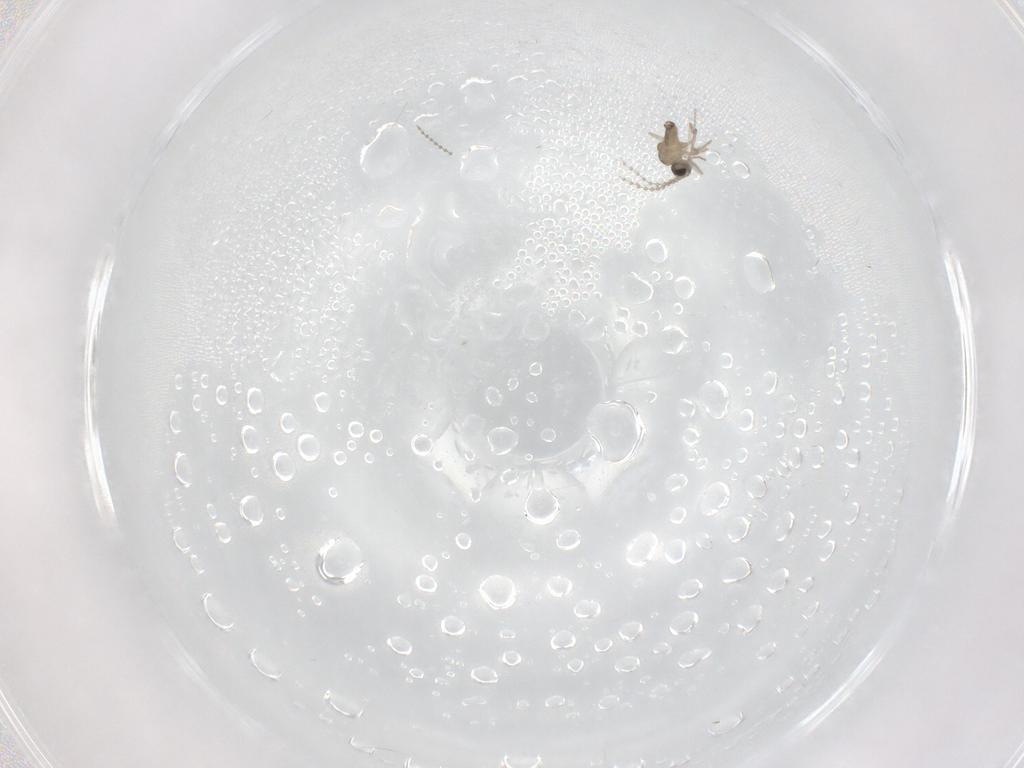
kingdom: Animalia
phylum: Arthropoda
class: Insecta
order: Diptera
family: Cecidomyiidae
